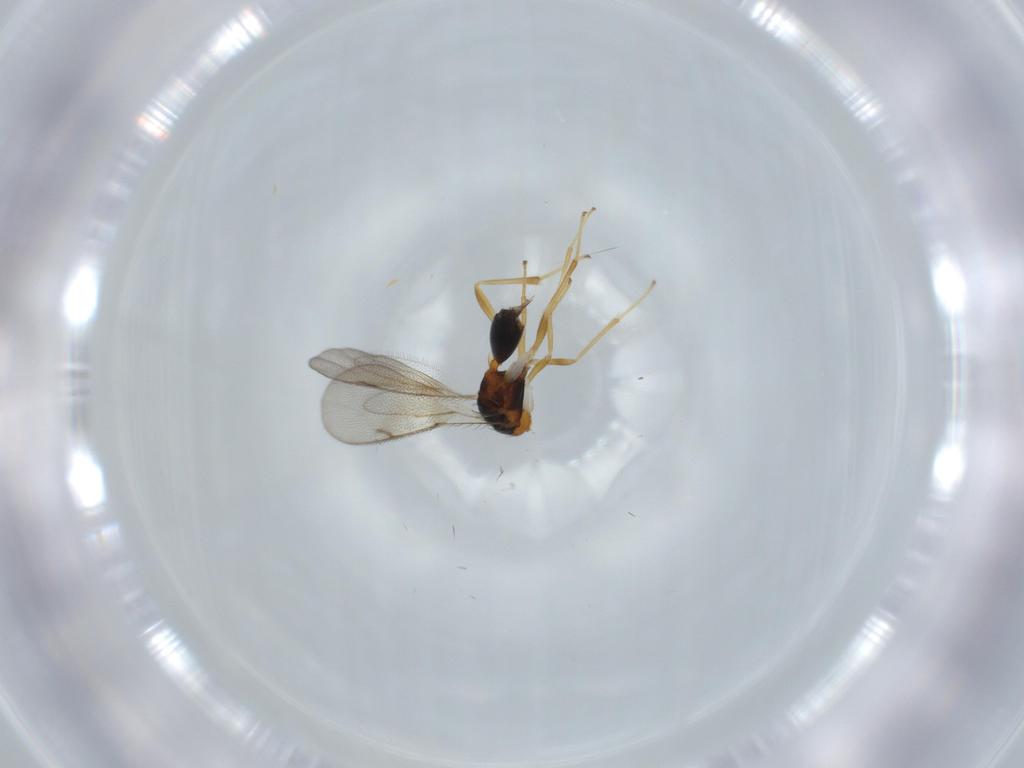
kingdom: Animalia
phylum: Arthropoda
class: Insecta
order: Hymenoptera
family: Diparidae
